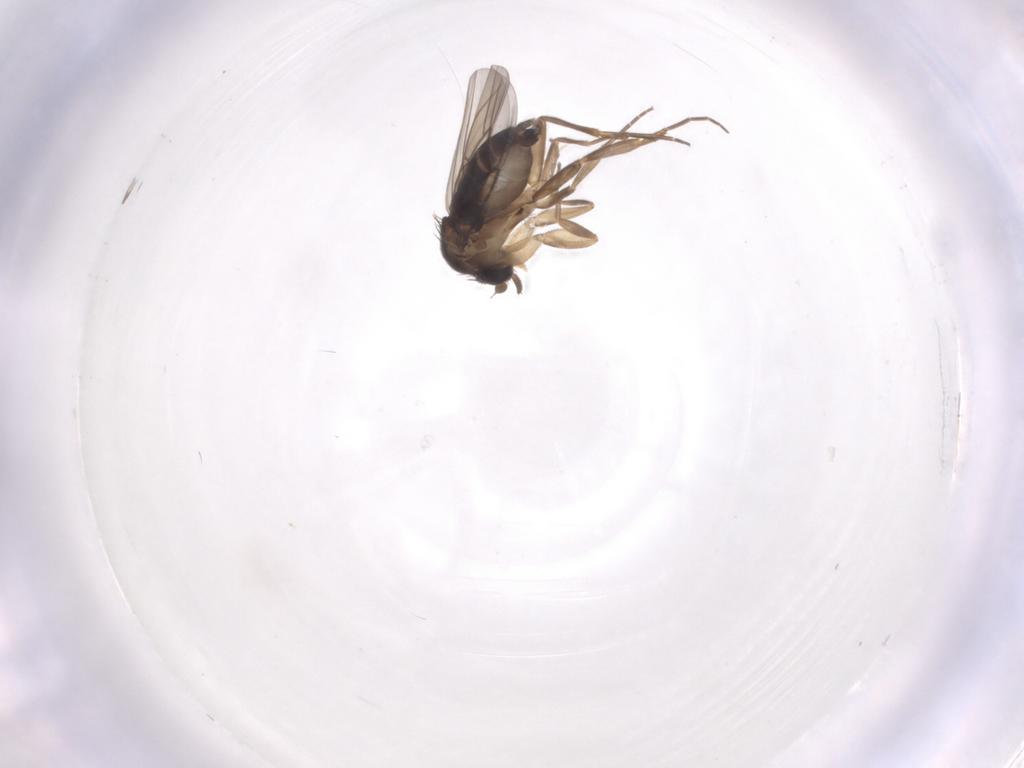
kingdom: Animalia
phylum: Arthropoda
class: Insecta
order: Diptera
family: Phoridae
